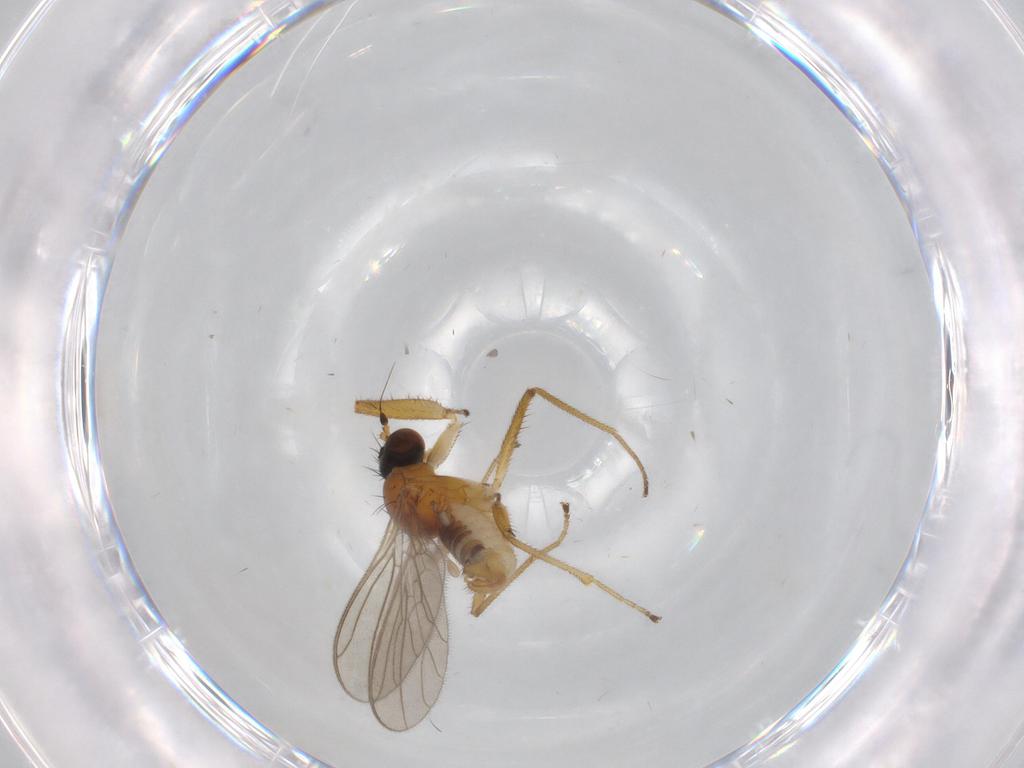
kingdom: Animalia
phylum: Arthropoda
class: Insecta
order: Diptera
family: Empididae
